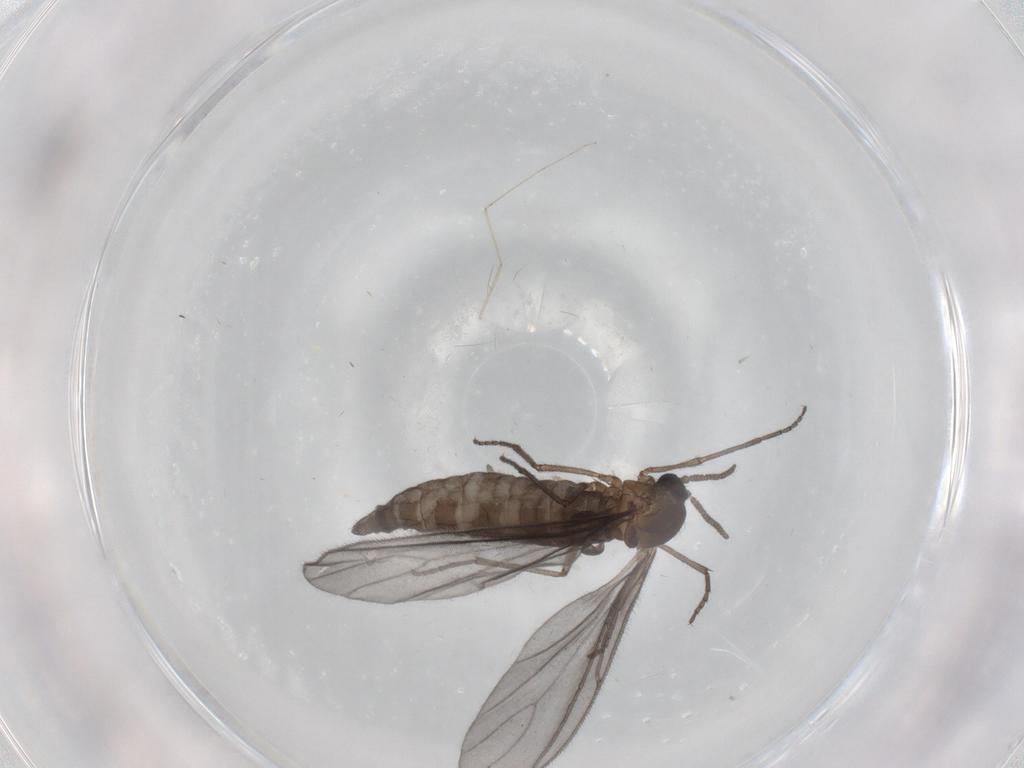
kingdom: Animalia
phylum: Arthropoda
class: Insecta
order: Diptera
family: Sciaridae
